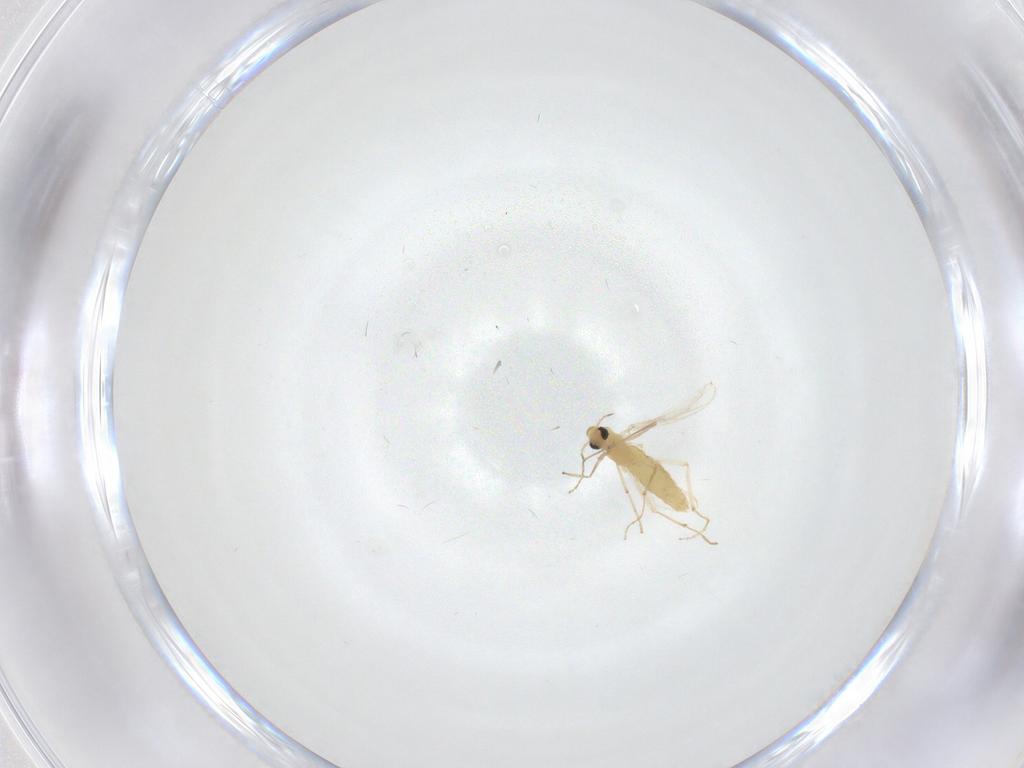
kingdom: Animalia
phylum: Arthropoda
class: Insecta
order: Diptera
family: Chironomidae
